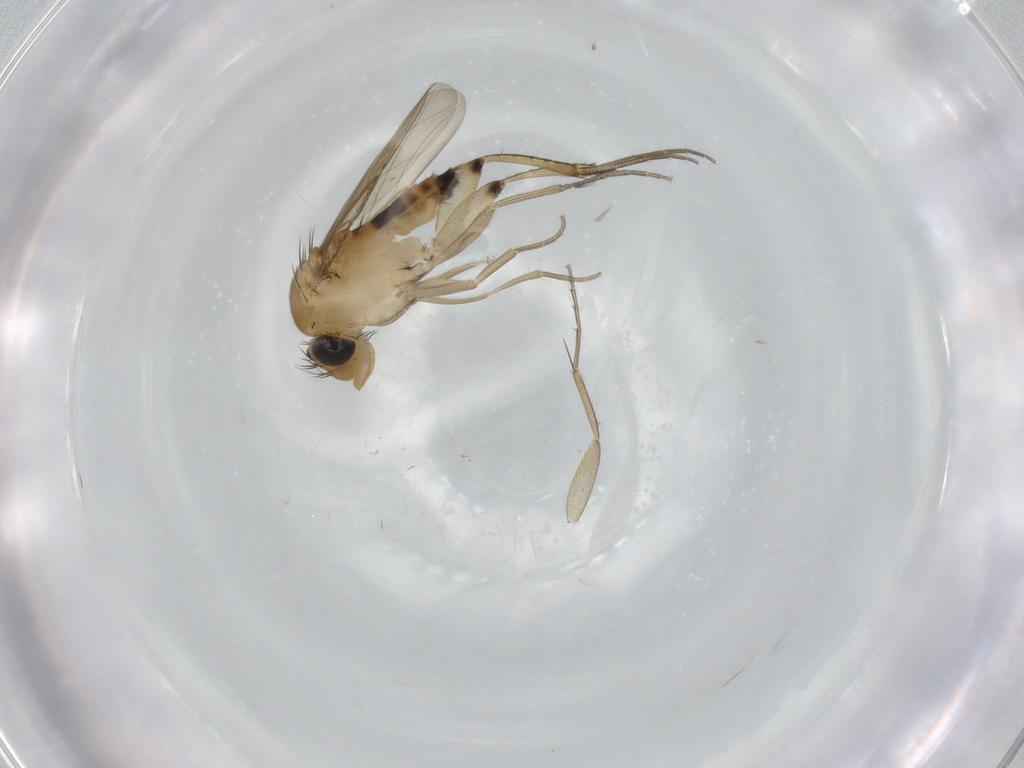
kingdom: Animalia
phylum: Arthropoda
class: Insecta
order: Diptera
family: Phoridae
